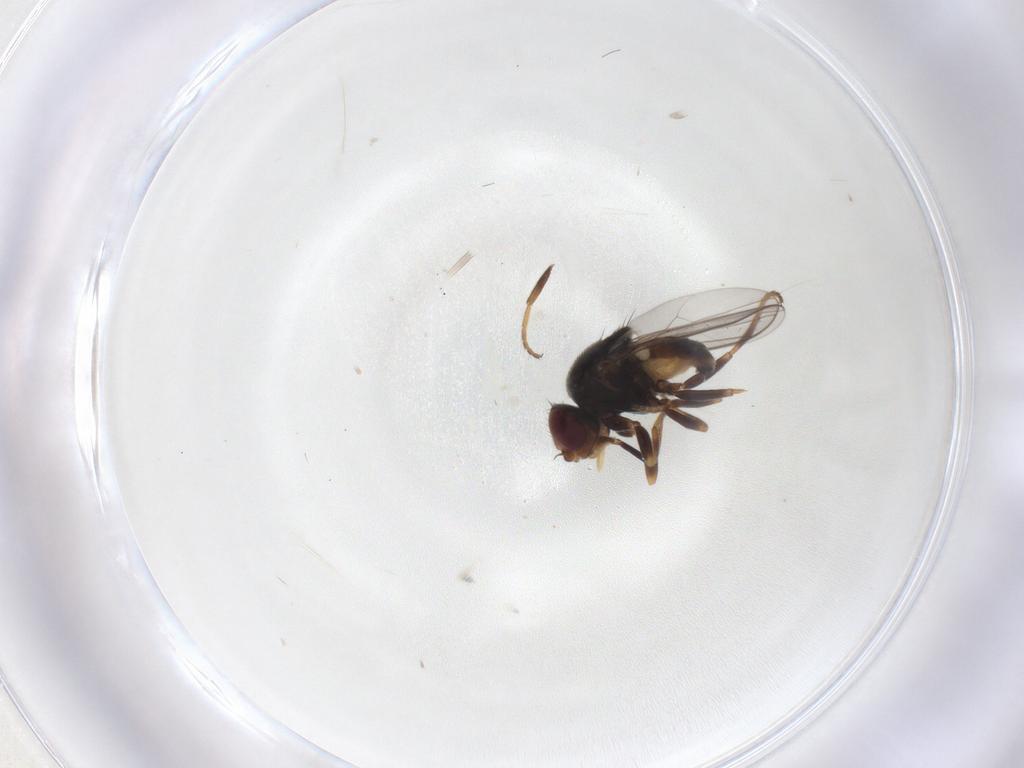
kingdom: Animalia
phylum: Arthropoda
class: Insecta
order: Diptera
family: Chloropidae
